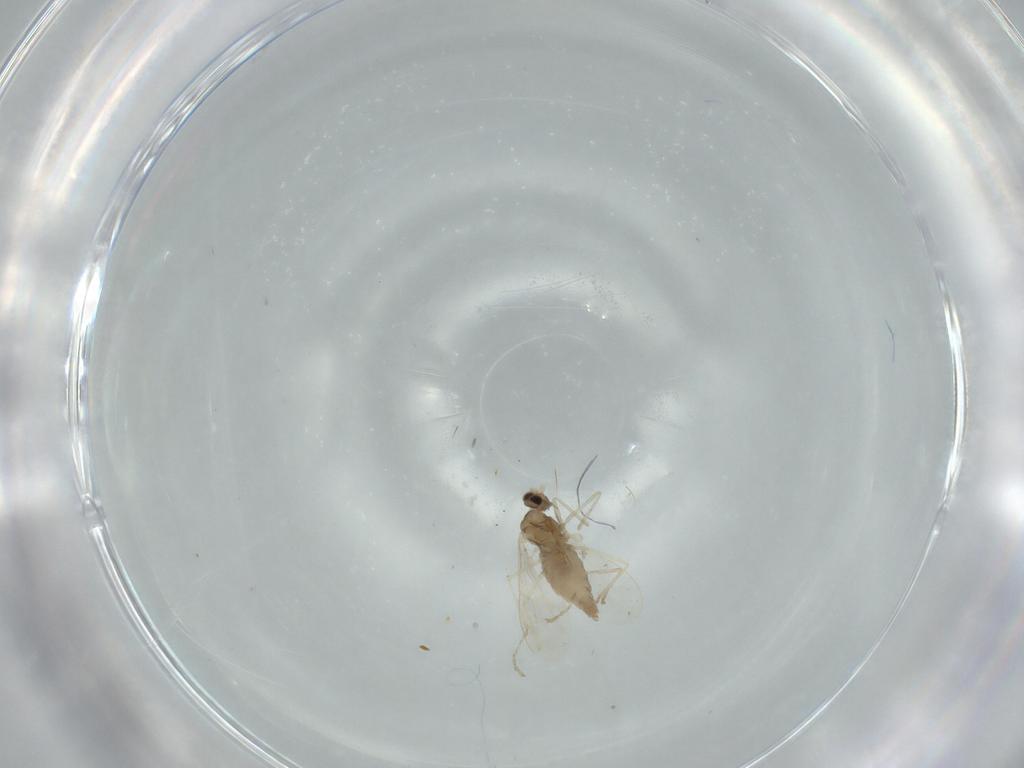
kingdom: Animalia
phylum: Arthropoda
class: Insecta
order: Diptera
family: Cecidomyiidae
